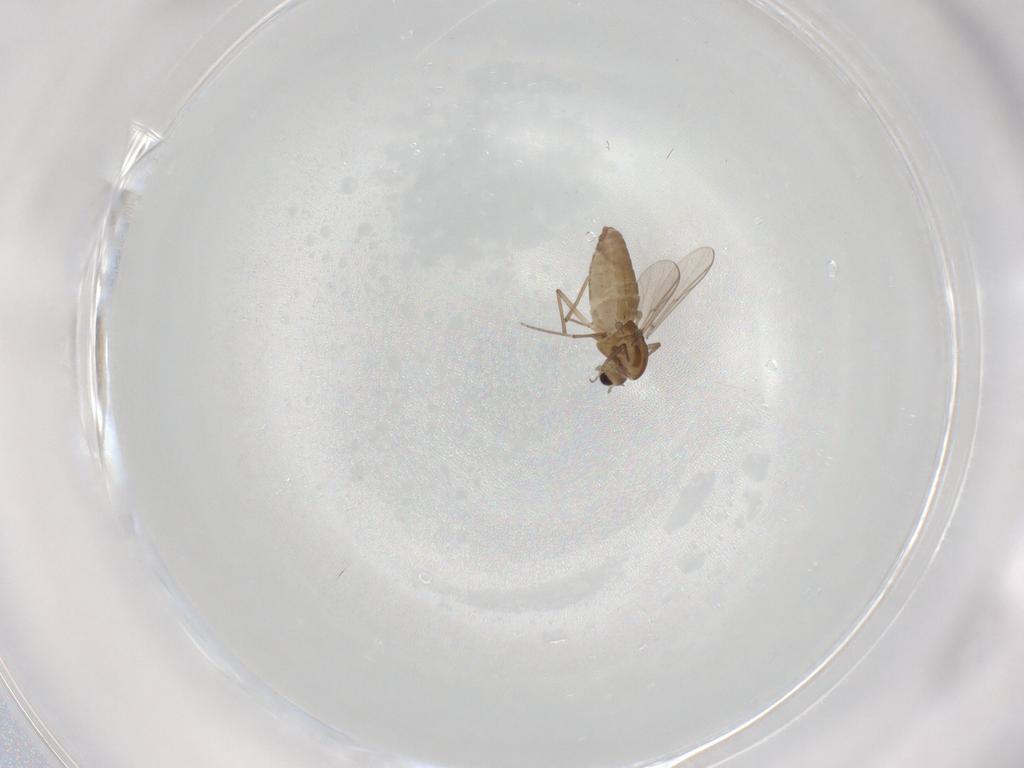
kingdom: Animalia
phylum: Arthropoda
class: Insecta
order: Diptera
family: Chironomidae
